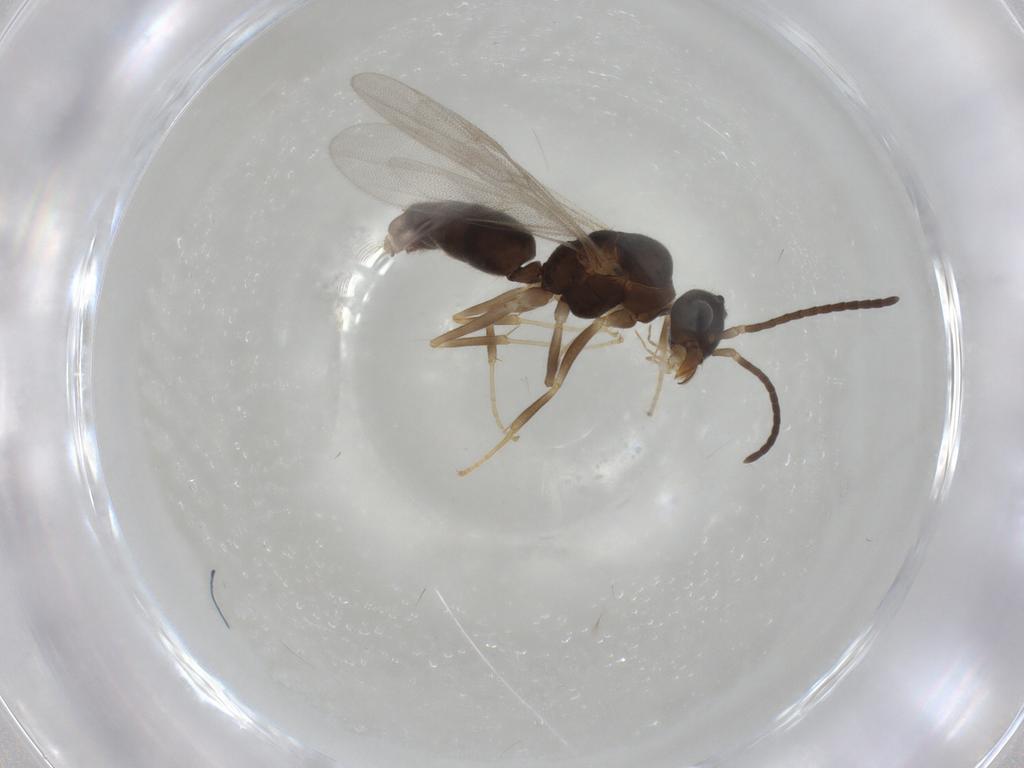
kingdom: Animalia
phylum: Arthropoda
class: Insecta
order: Hymenoptera
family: Formicidae
